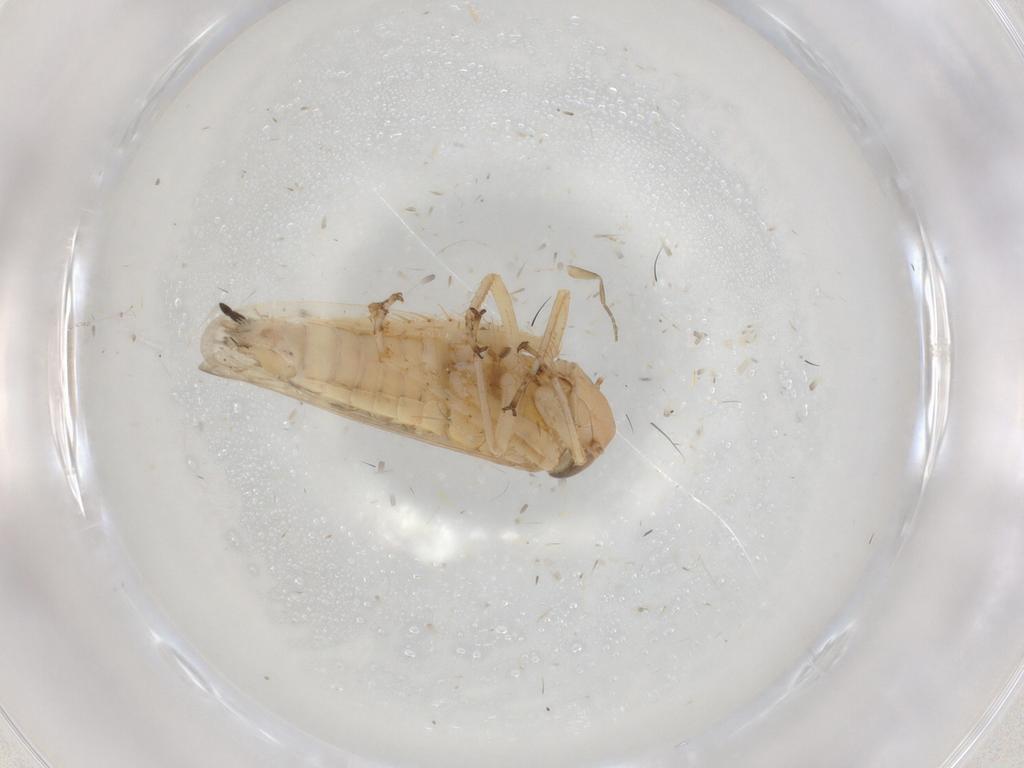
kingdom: Animalia
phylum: Arthropoda
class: Insecta
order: Hemiptera
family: Cicadellidae
